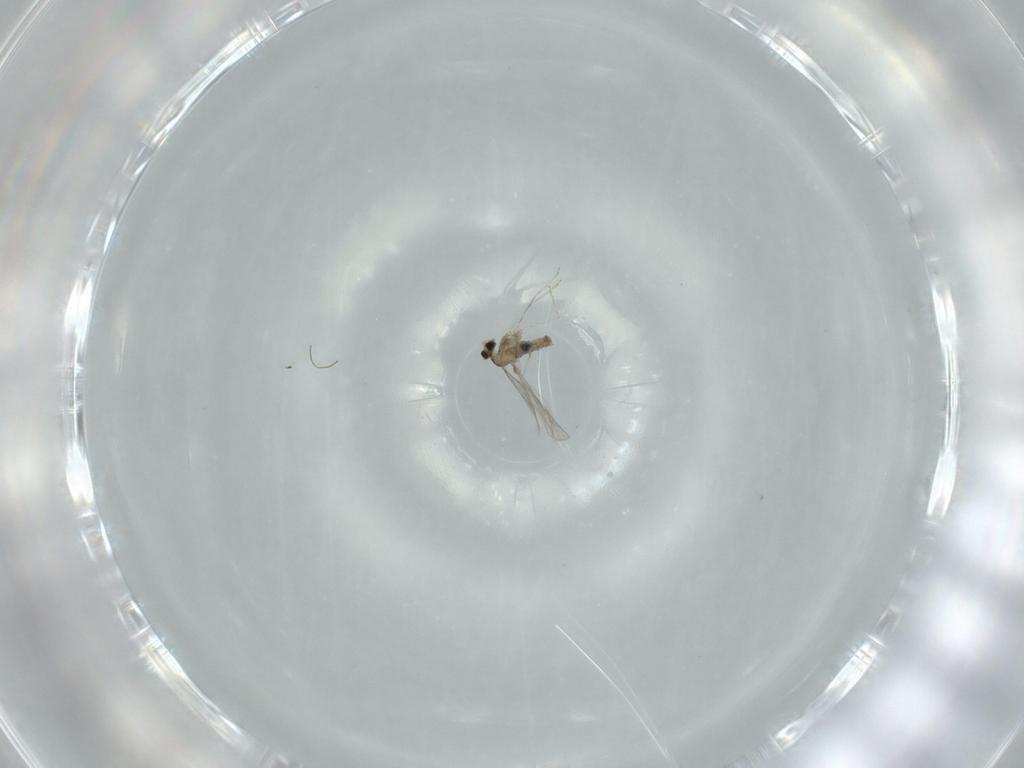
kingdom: Animalia
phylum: Arthropoda
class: Insecta
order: Diptera
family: Cecidomyiidae
